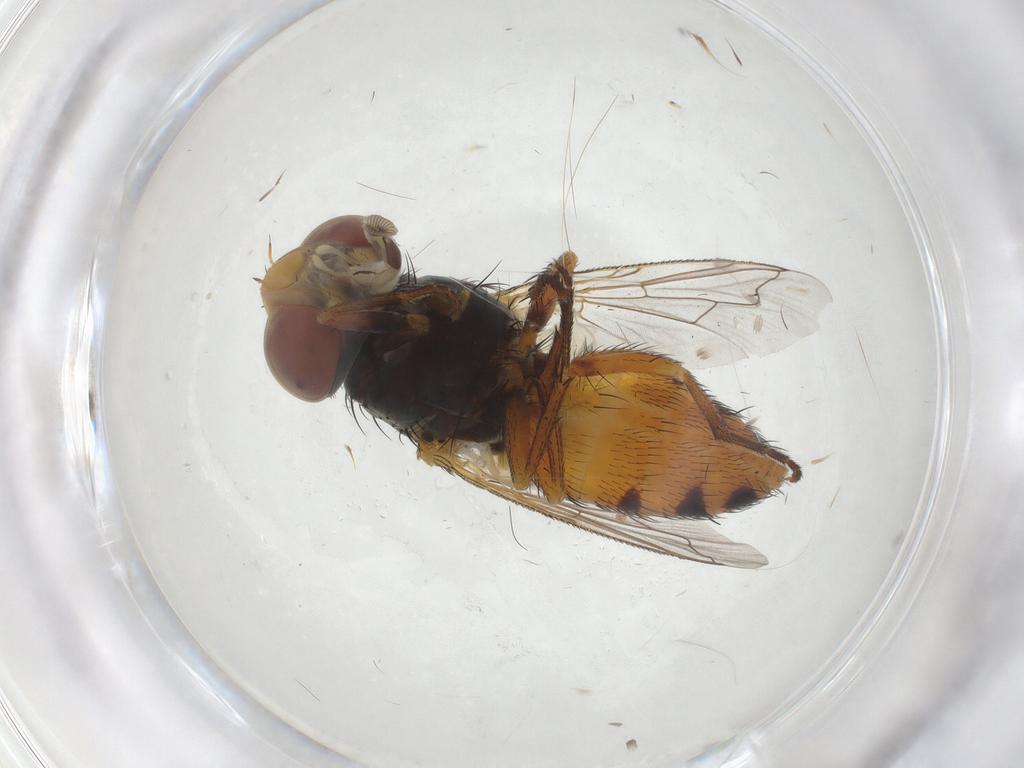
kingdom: Animalia
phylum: Arthropoda
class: Insecta
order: Diptera
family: Sarcophagidae
